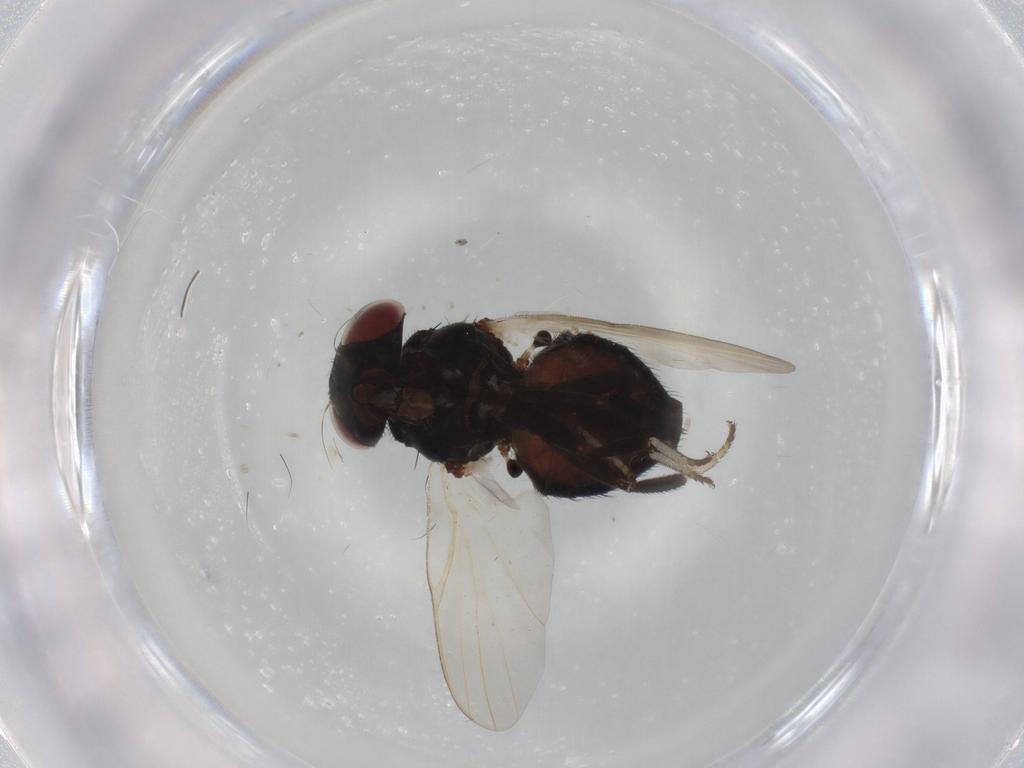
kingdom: Animalia
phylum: Arthropoda
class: Insecta
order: Diptera
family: Lonchaeidae
